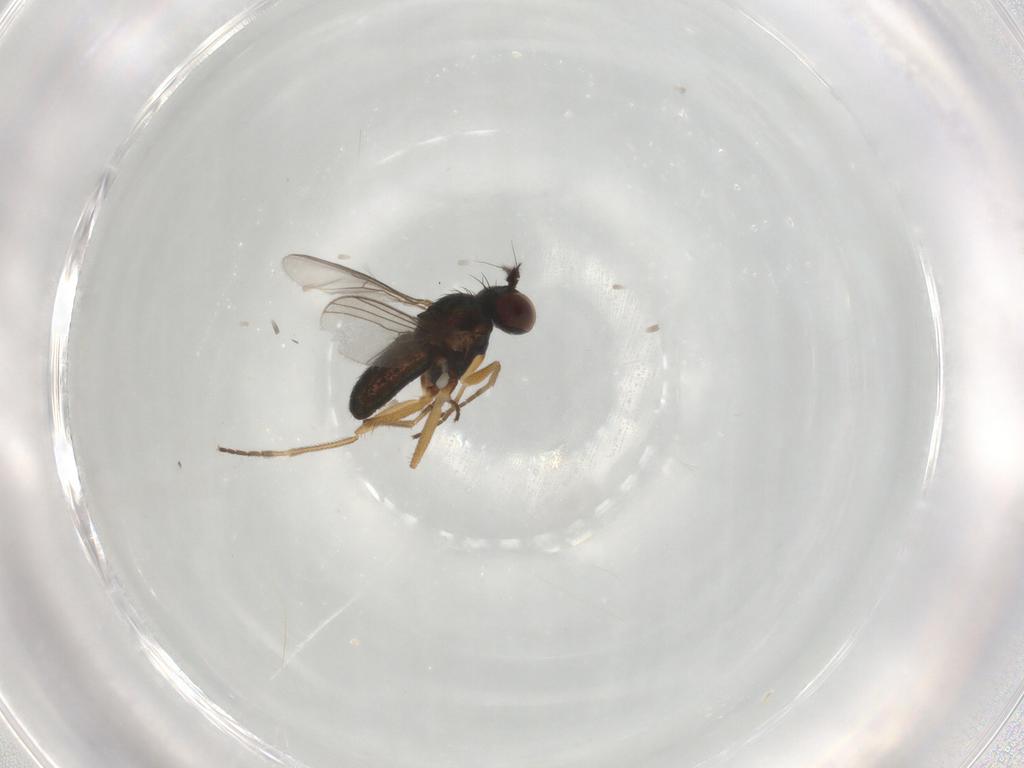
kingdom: Animalia
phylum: Arthropoda
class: Insecta
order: Diptera
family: Dolichopodidae
